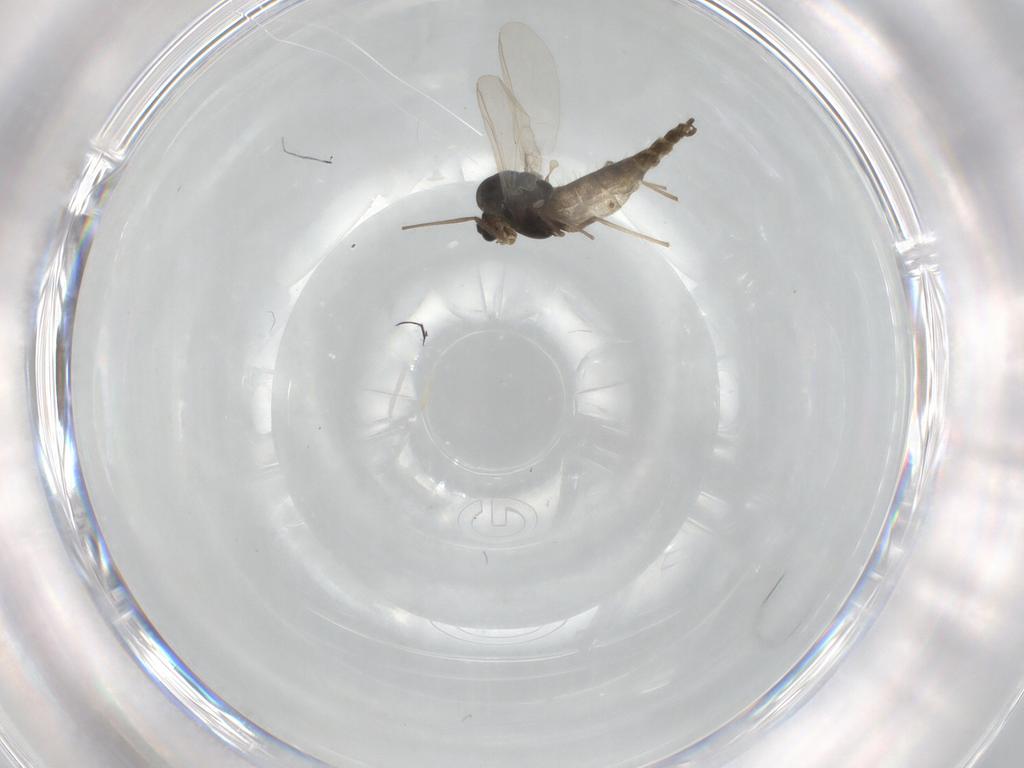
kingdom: Animalia
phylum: Arthropoda
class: Insecta
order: Diptera
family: Chironomidae
